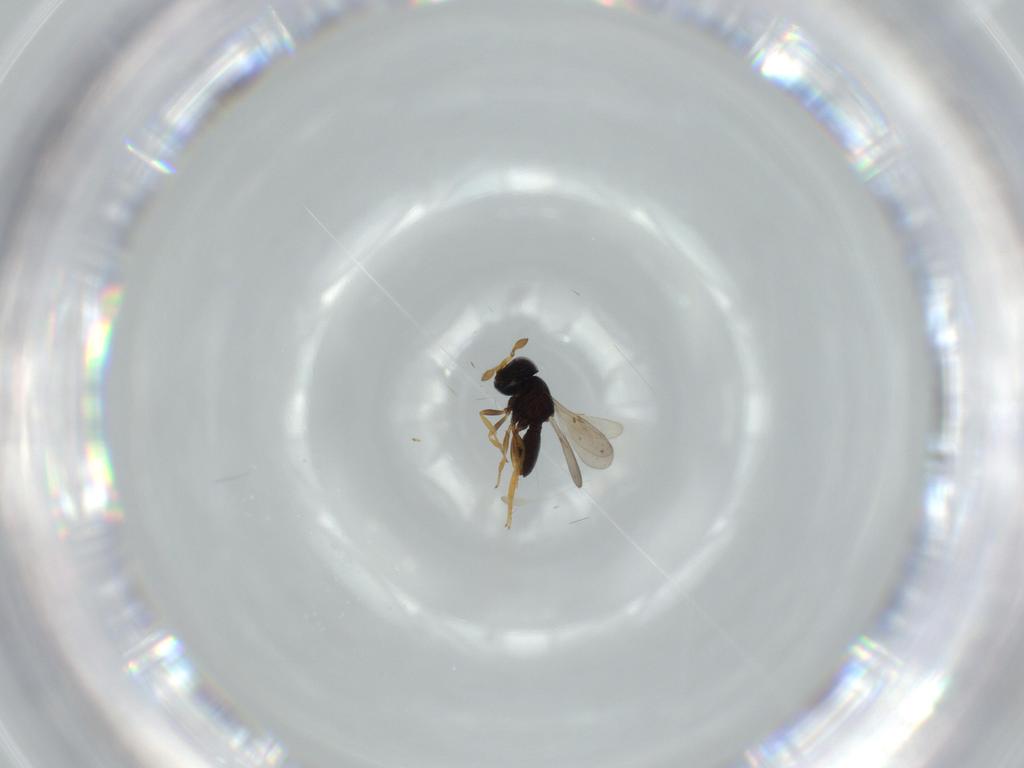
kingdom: Animalia
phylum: Arthropoda
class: Insecta
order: Hymenoptera
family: Scelionidae
